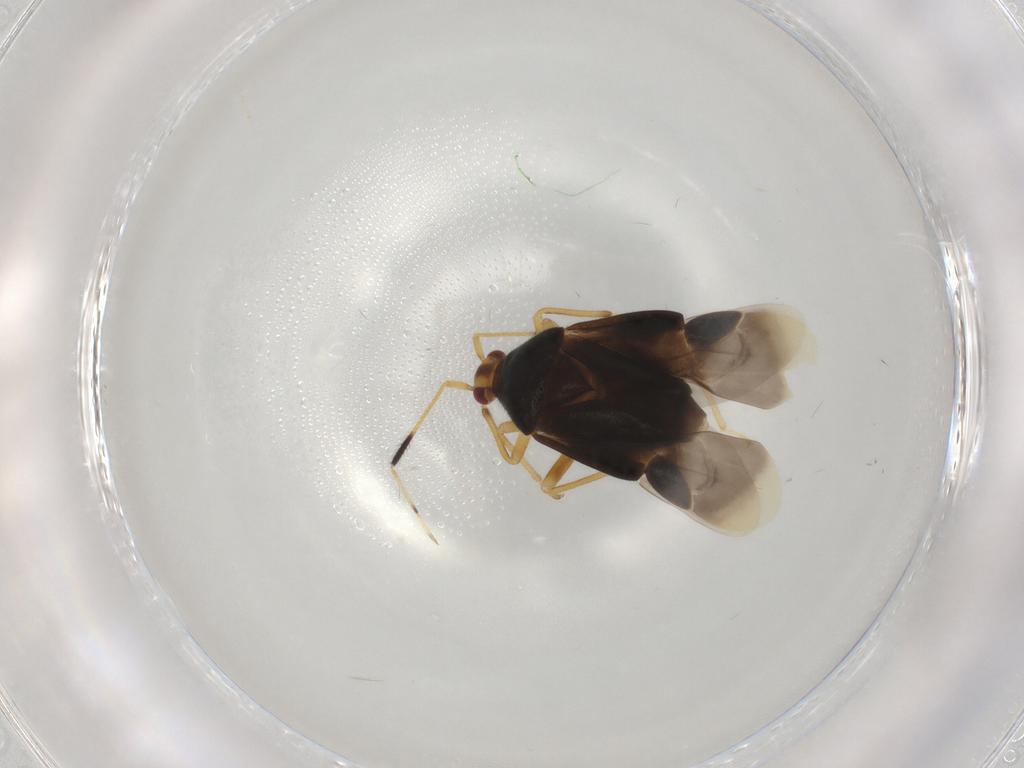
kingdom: Animalia
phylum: Arthropoda
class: Insecta
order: Hemiptera
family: Miridae
